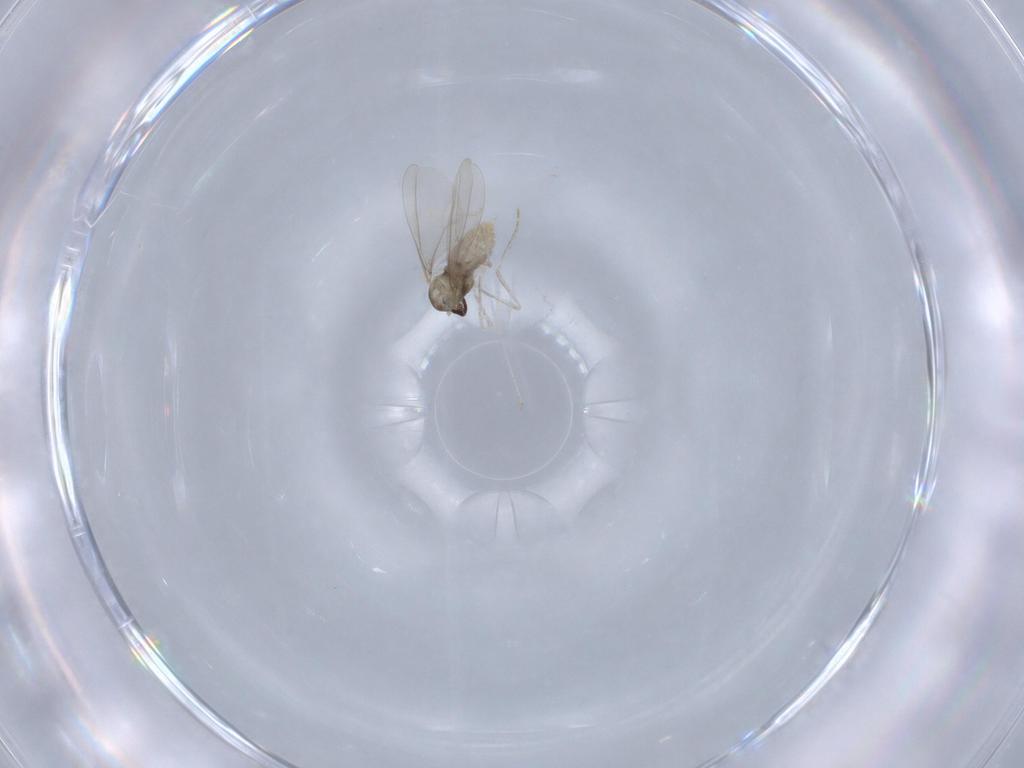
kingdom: Animalia
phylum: Arthropoda
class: Insecta
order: Diptera
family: Cecidomyiidae
